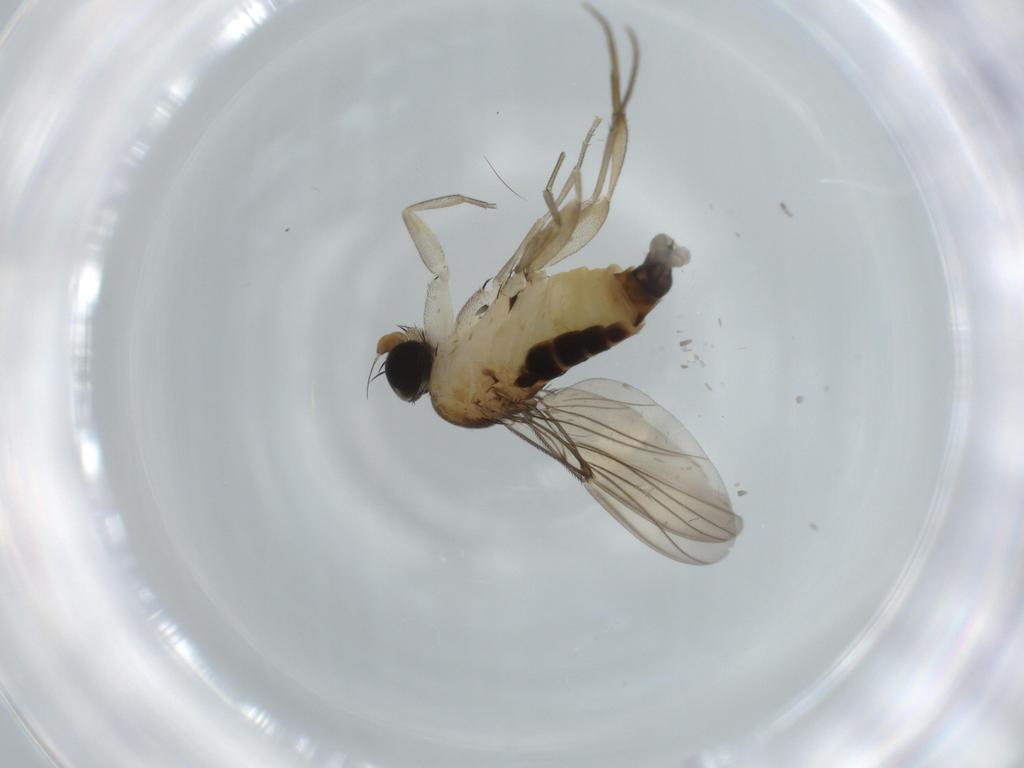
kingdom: Animalia
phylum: Arthropoda
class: Insecta
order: Diptera
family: Phoridae
